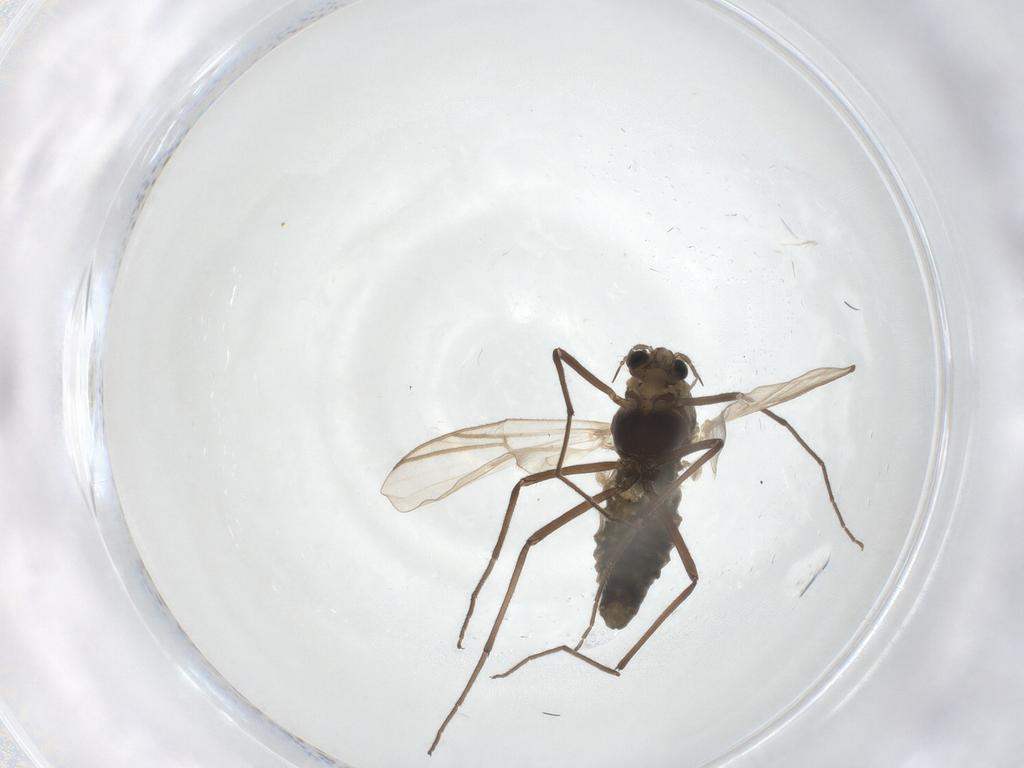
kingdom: Animalia
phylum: Arthropoda
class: Insecta
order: Diptera
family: Chironomidae
